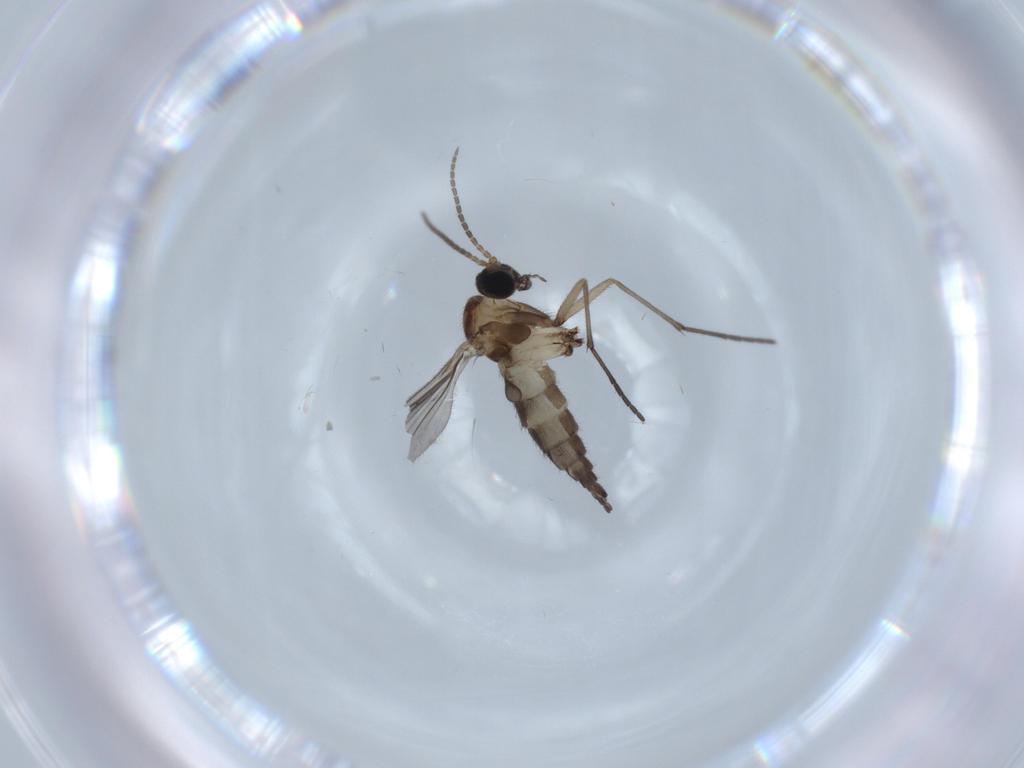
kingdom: Animalia
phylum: Arthropoda
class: Insecta
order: Diptera
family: Sciaridae
